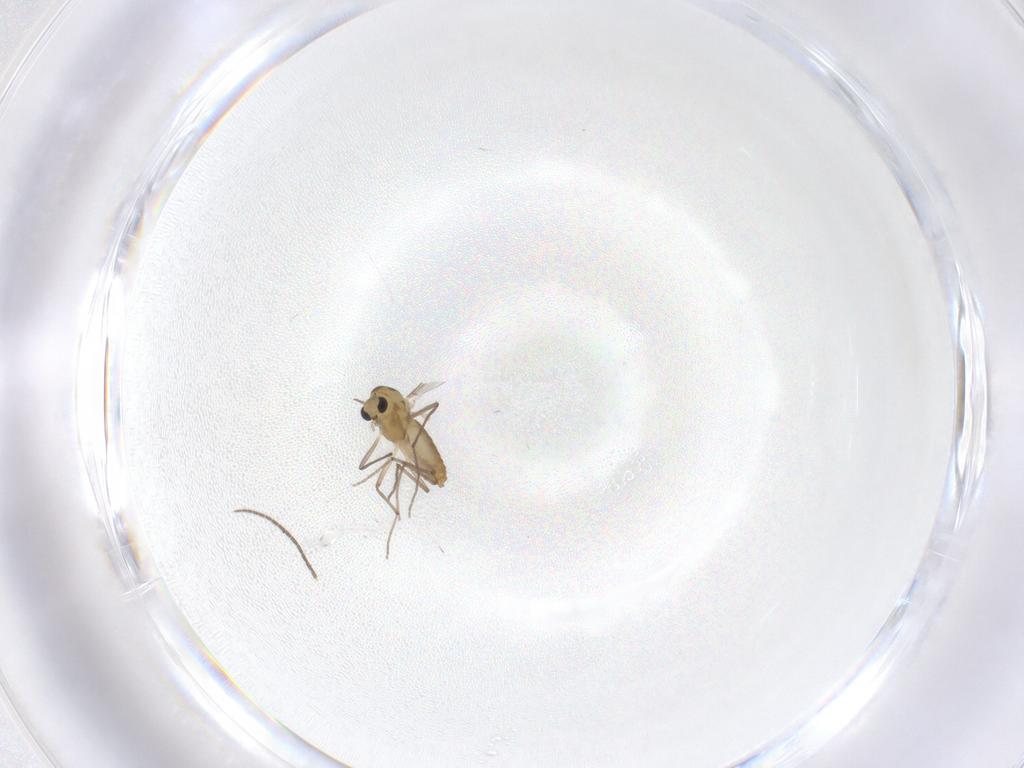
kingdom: Animalia
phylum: Arthropoda
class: Insecta
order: Diptera
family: Chironomidae
